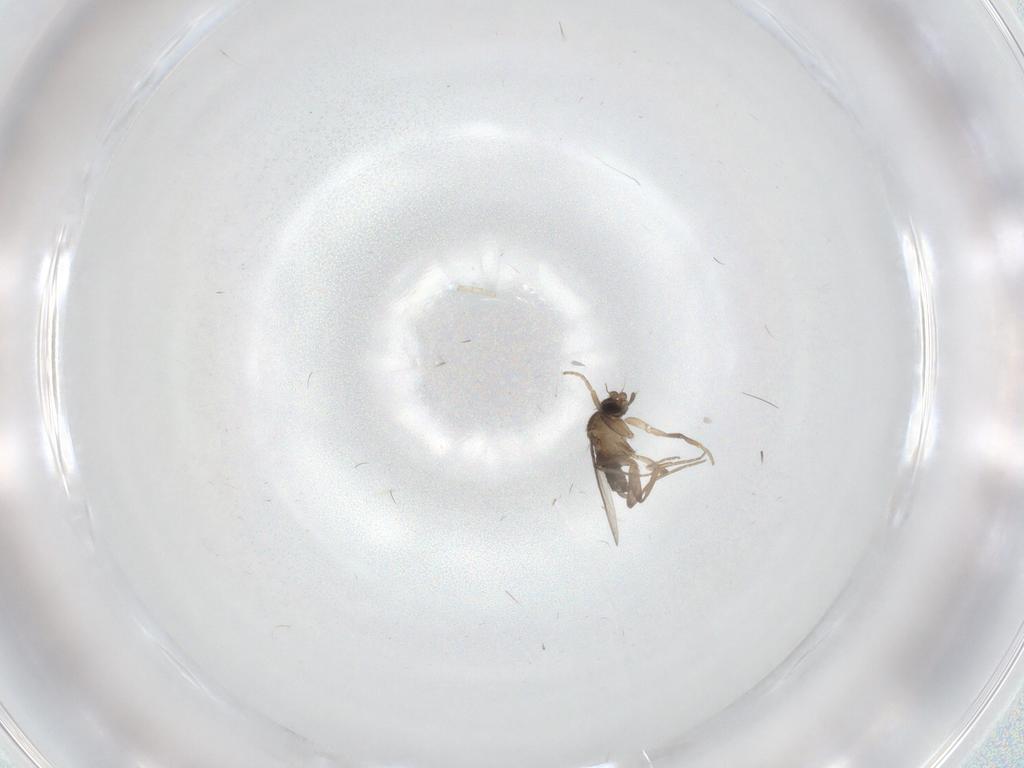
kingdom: Animalia
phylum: Arthropoda
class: Insecta
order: Diptera
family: Phoridae
